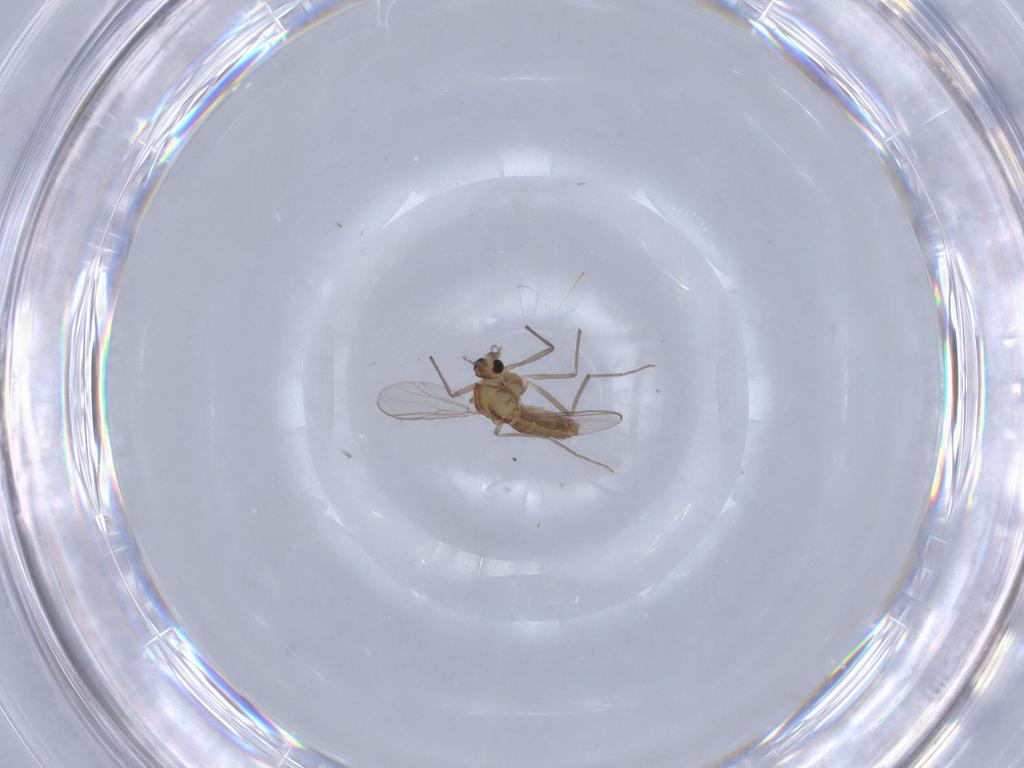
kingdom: Animalia
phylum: Arthropoda
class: Insecta
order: Diptera
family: Chironomidae
